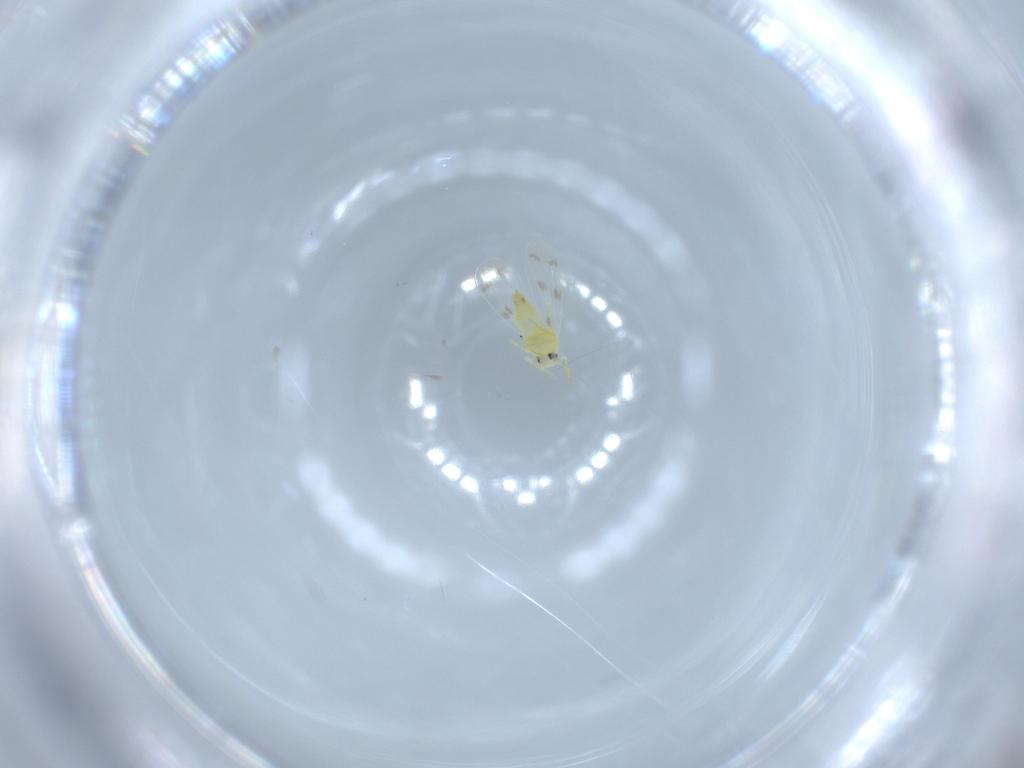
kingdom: Animalia
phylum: Arthropoda
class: Insecta
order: Hemiptera
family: Aleyrodidae
